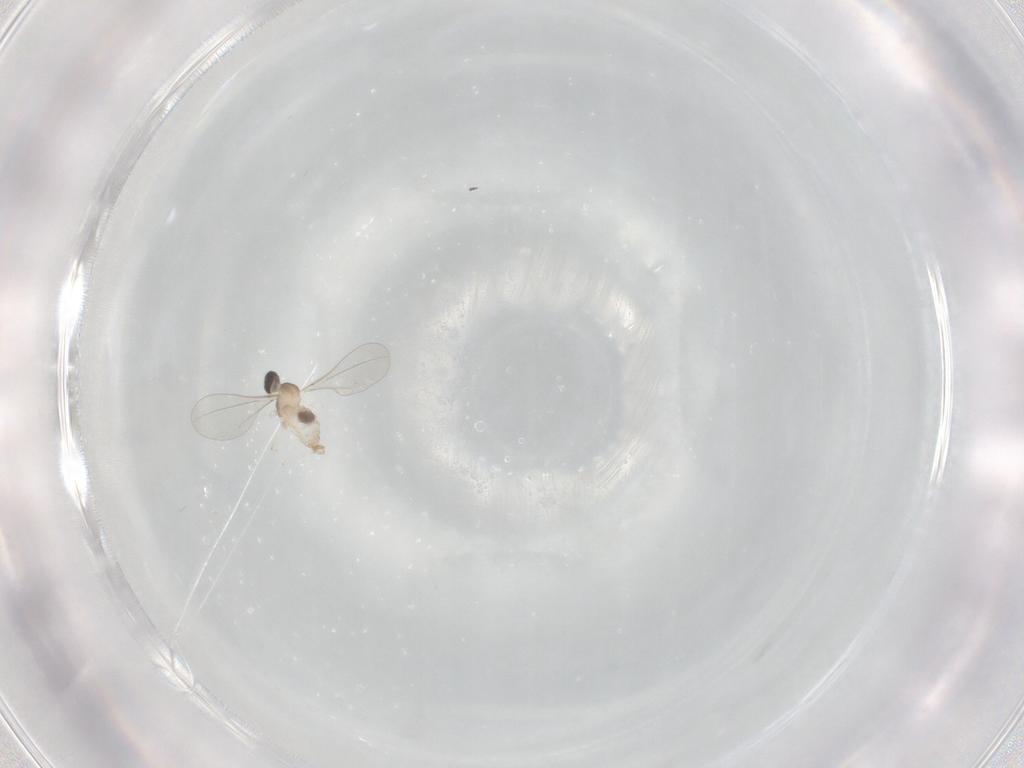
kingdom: Animalia
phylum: Arthropoda
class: Insecta
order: Diptera
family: Cecidomyiidae
